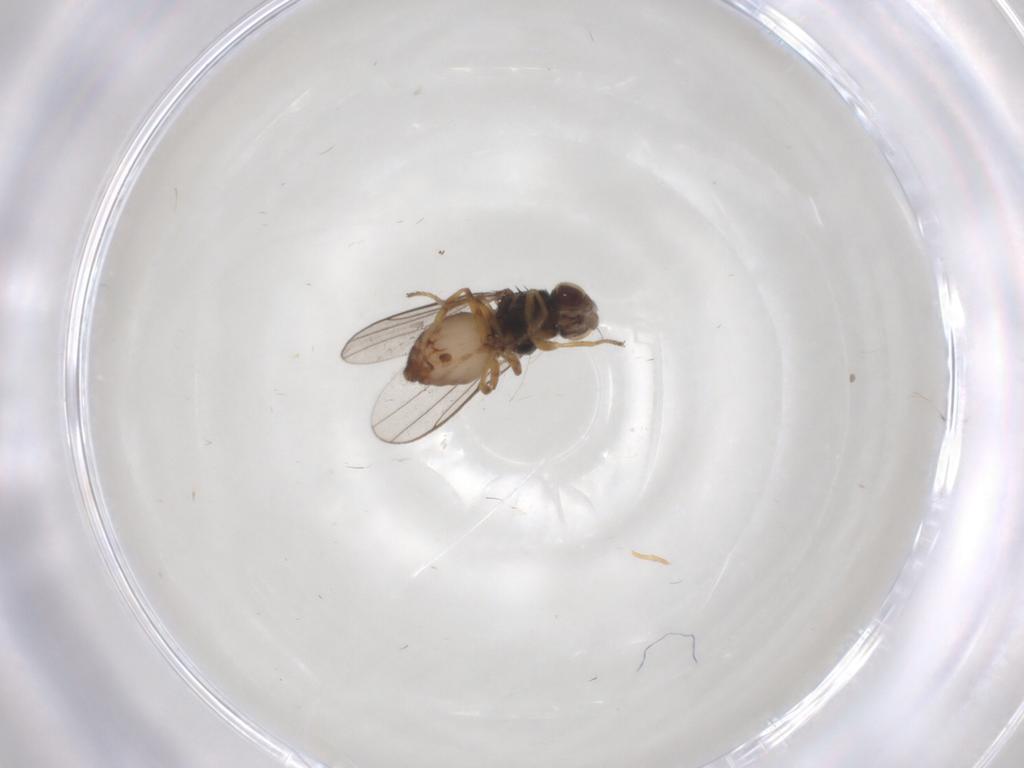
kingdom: Animalia
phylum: Arthropoda
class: Insecta
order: Diptera
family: Chloropidae
